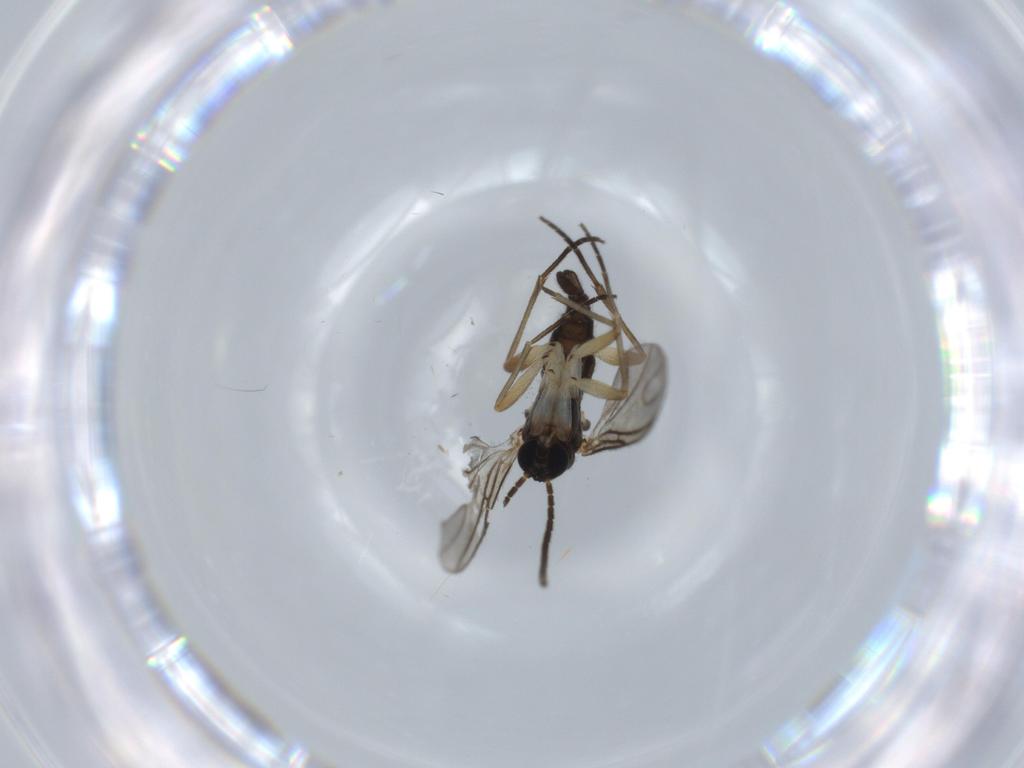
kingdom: Animalia
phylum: Arthropoda
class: Insecta
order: Diptera
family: Anthomyiidae
